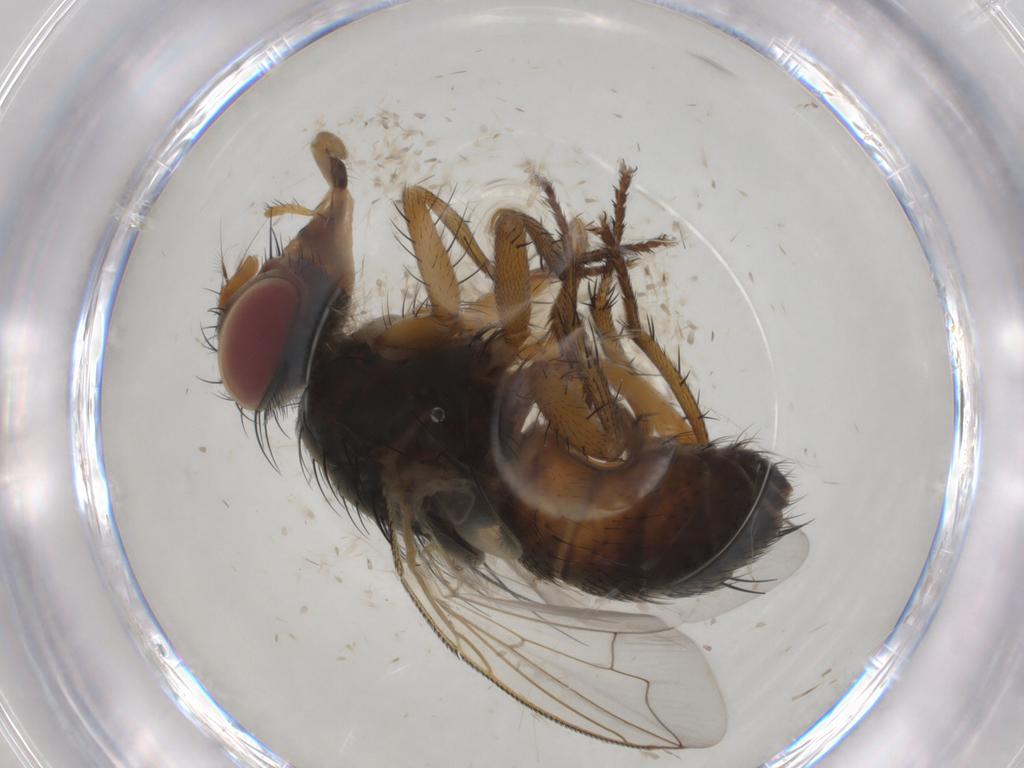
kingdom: Animalia
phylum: Arthropoda
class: Insecta
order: Diptera
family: Sarcophagidae
